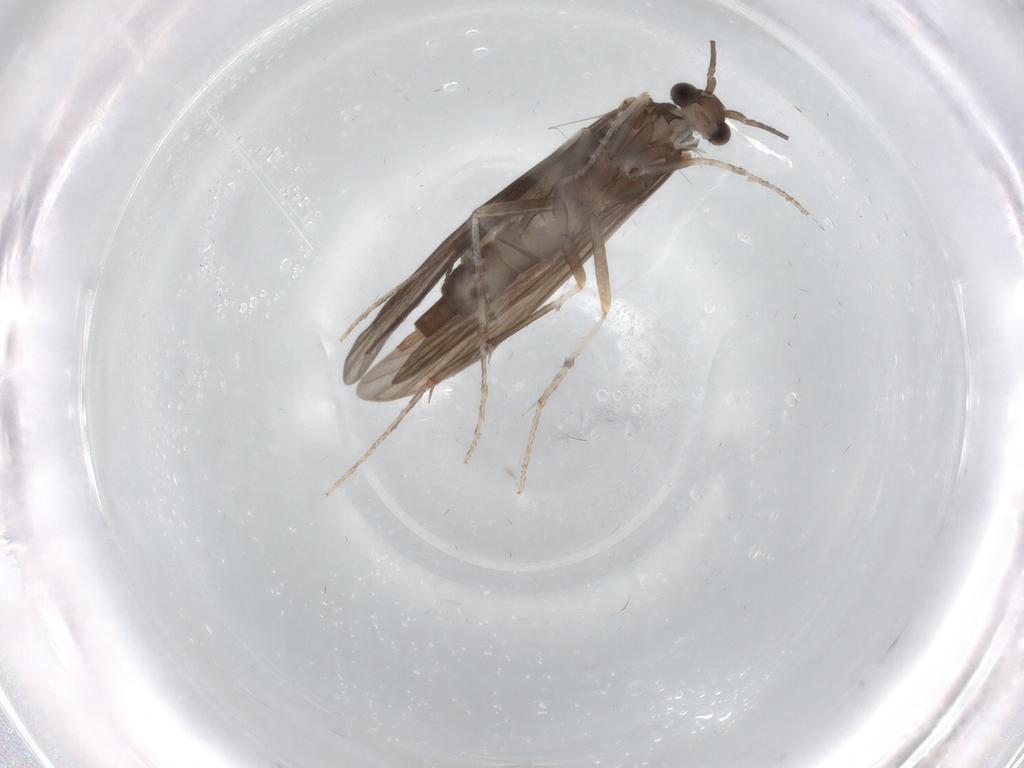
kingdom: Animalia
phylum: Arthropoda
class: Insecta
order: Trichoptera
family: Xiphocentronidae
